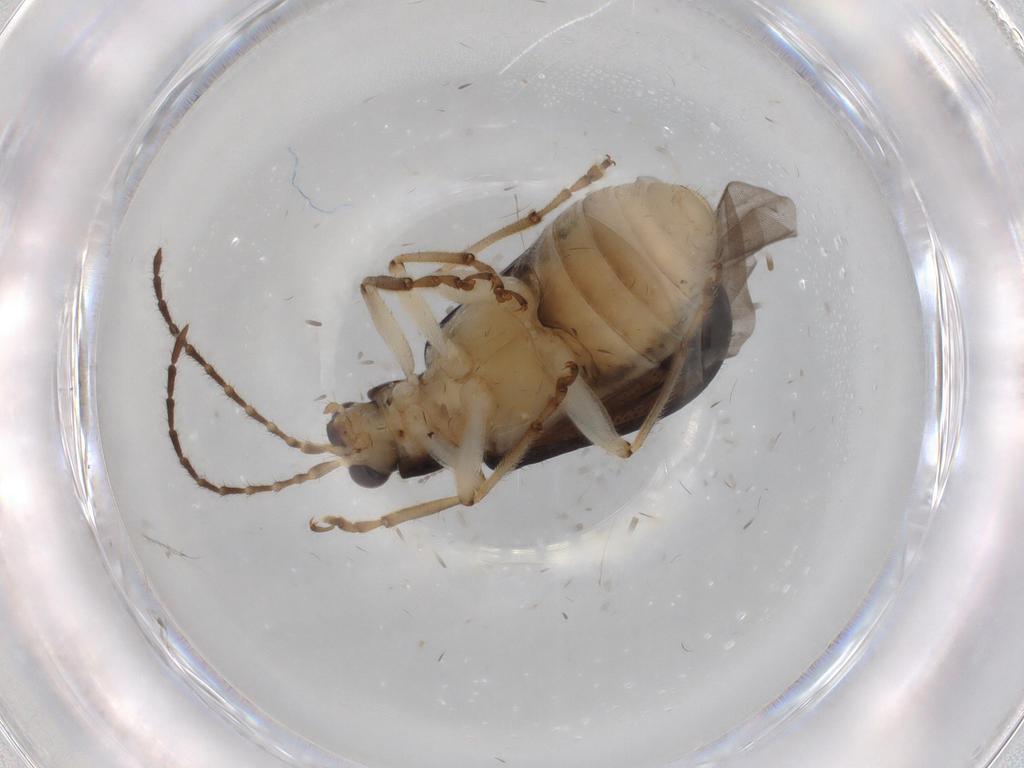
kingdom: Animalia
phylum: Arthropoda
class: Insecta
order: Coleoptera
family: Chrysomelidae
